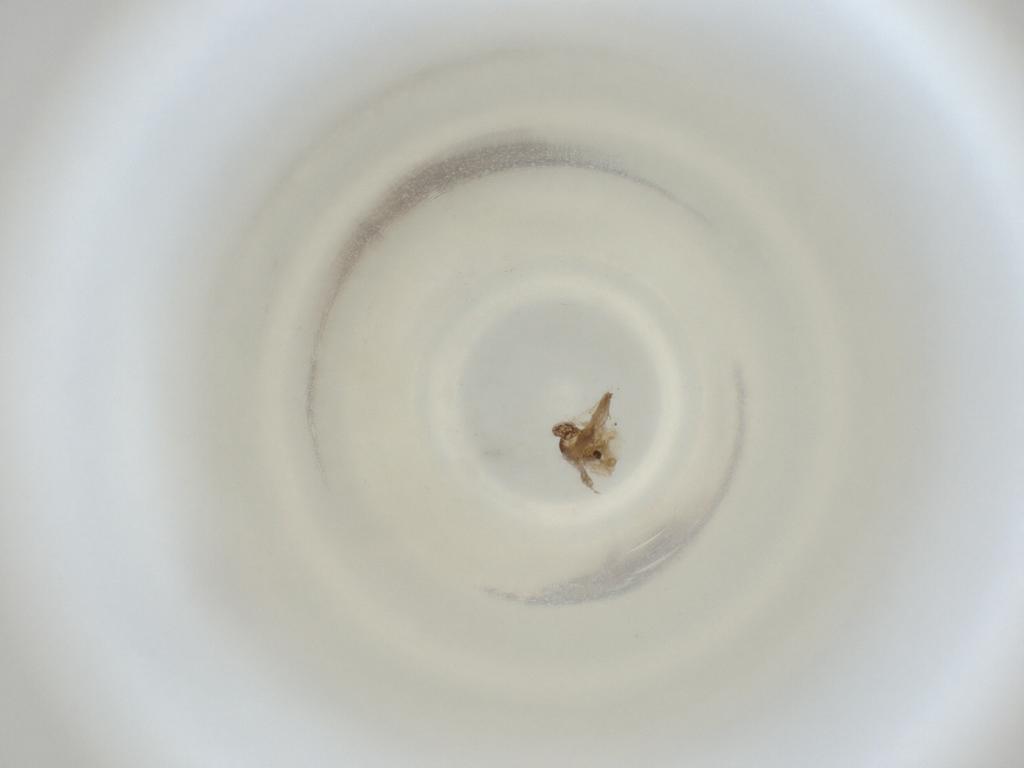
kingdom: Animalia
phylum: Arthropoda
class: Insecta
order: Diptera
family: Cecidomyiidae
